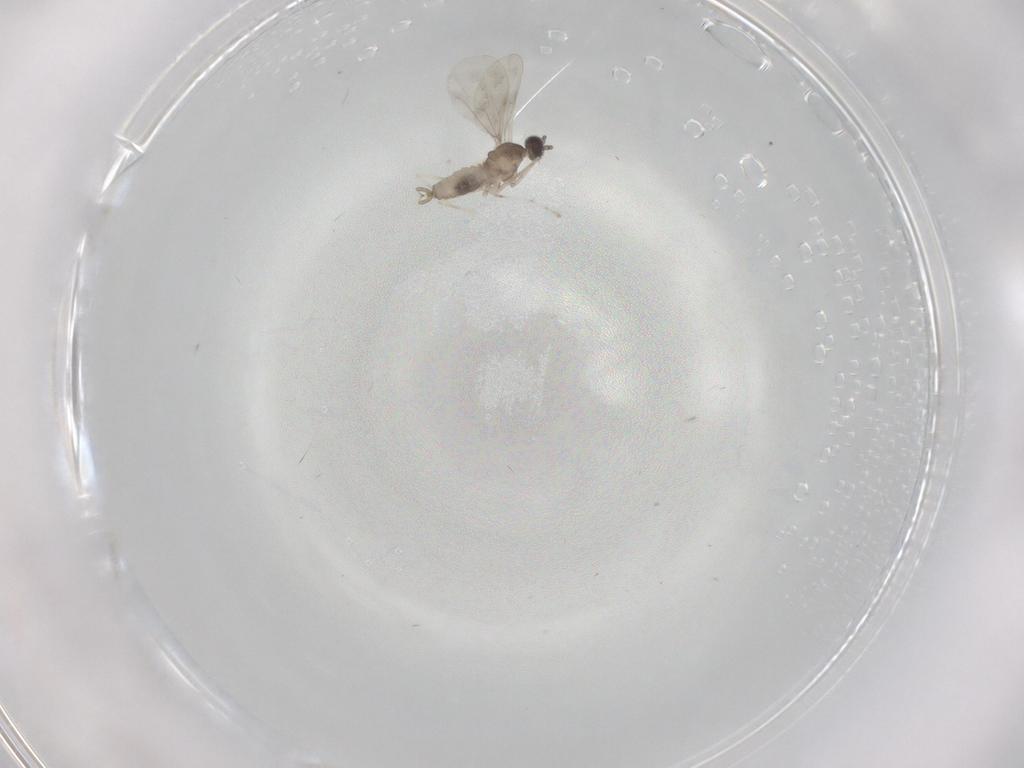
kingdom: Animalia
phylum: Arthropoda
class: Insecta
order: Diptera
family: Cecidomyiidae
